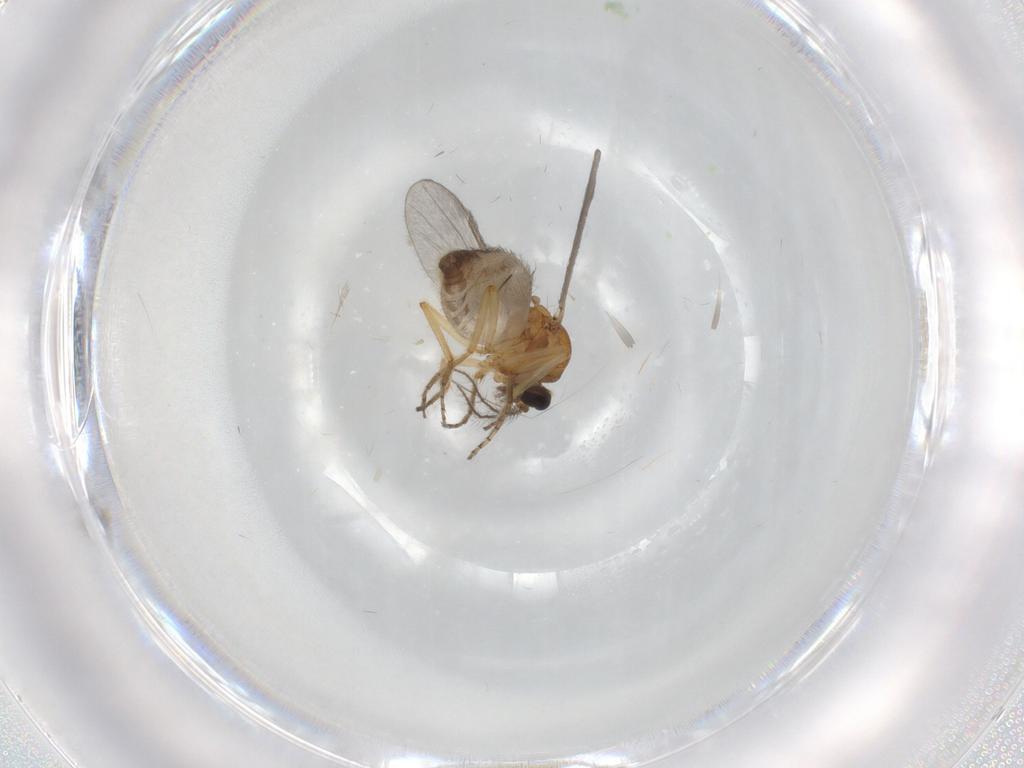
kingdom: Animalia
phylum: Arthropoda
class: Insecta
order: Diptera
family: Ceratopogonidae
